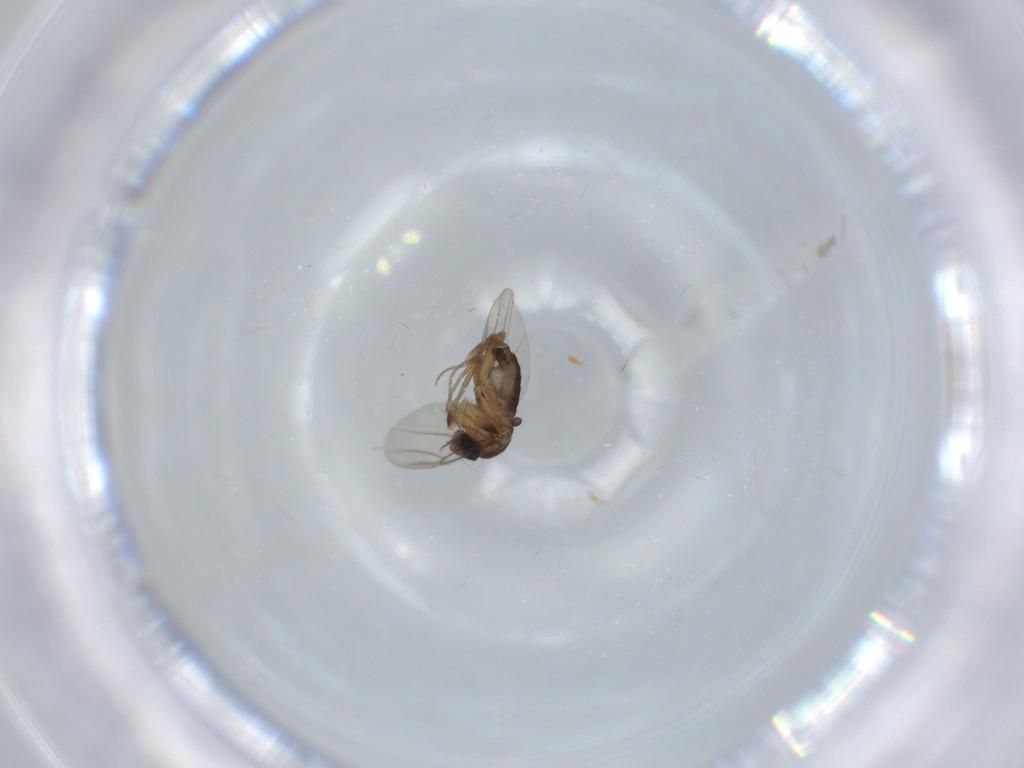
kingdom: Animalia
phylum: Arthropoda
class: Insecta
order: Diptera
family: Phoridae
